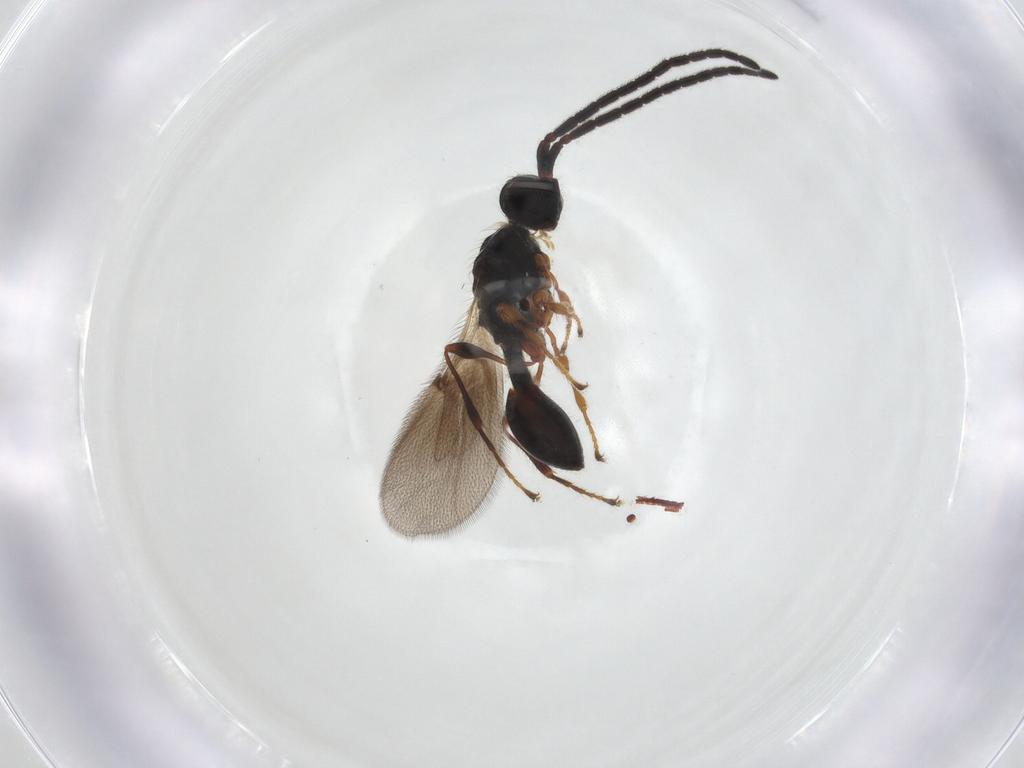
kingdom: Animalia
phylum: Arthropoda
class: Insecta
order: Hymenoptera
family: Diapriidae
